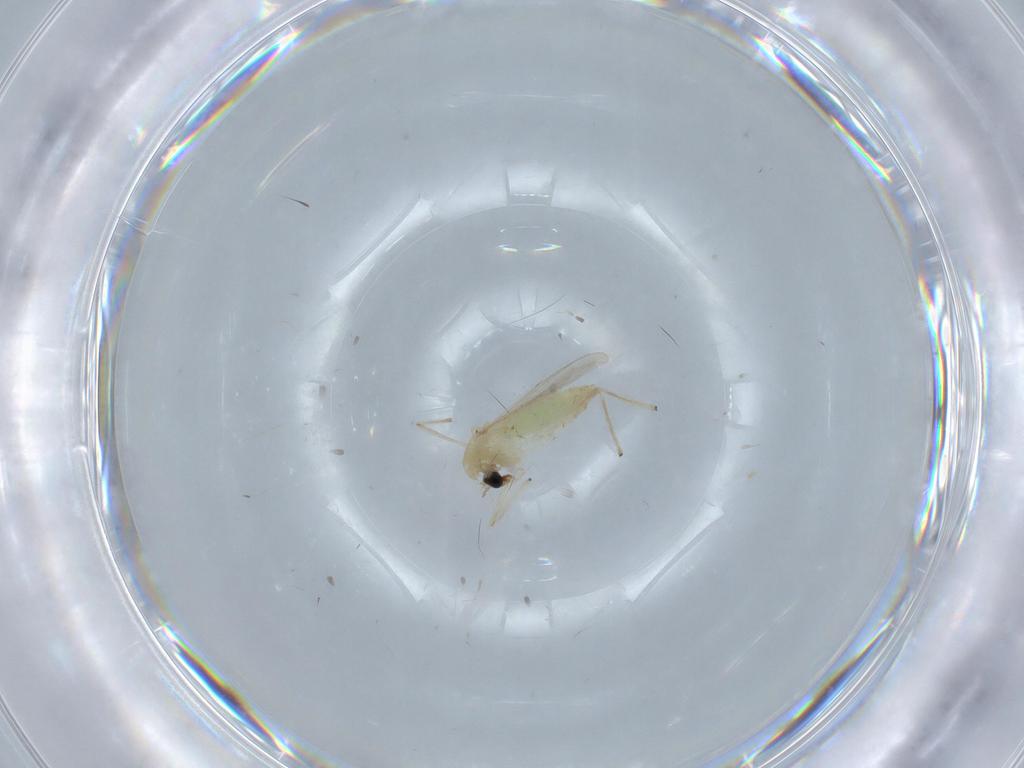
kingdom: Animalia
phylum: Arthropoda
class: Insecta
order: Diptera
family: Chironomidae
